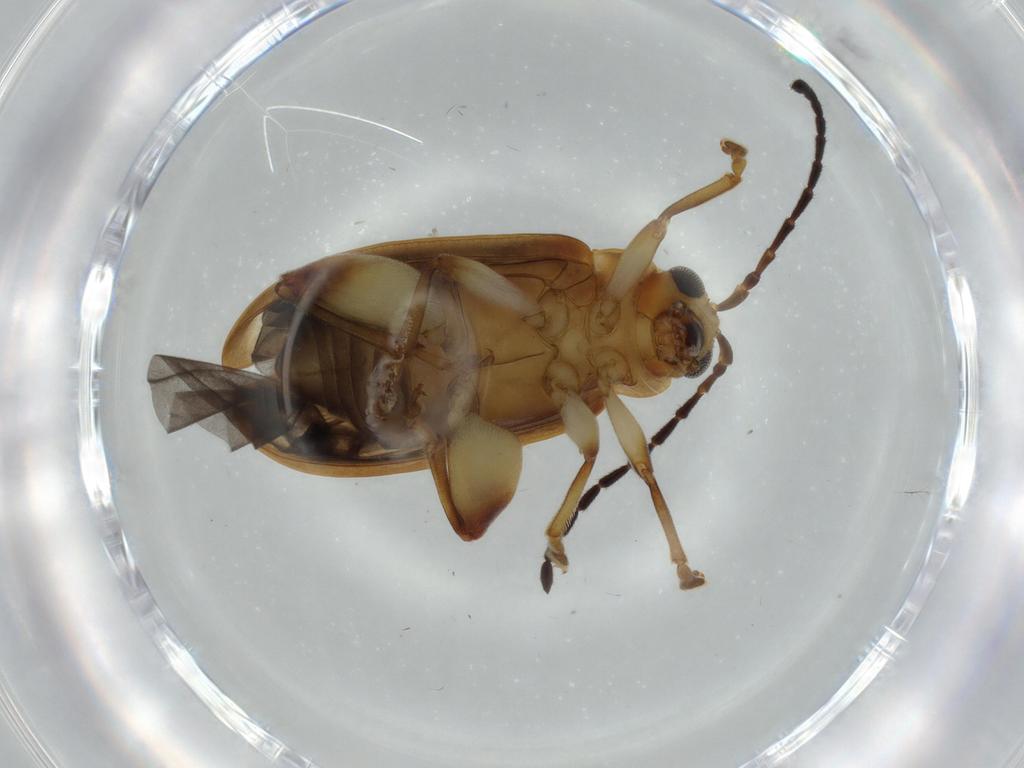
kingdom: Animalia
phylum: Arthropoda
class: Insecta
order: Coleoptera
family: Chrysomelidae
